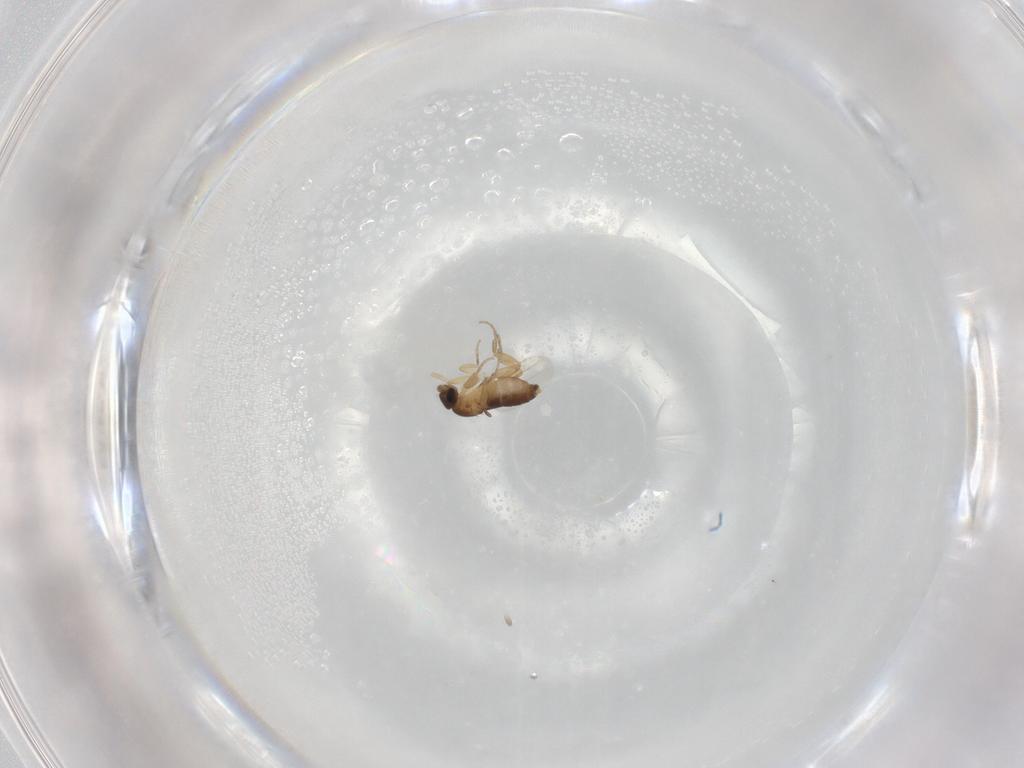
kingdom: Animalia
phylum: Arthropoda
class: Insecta
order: Diptera
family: Phoridae
